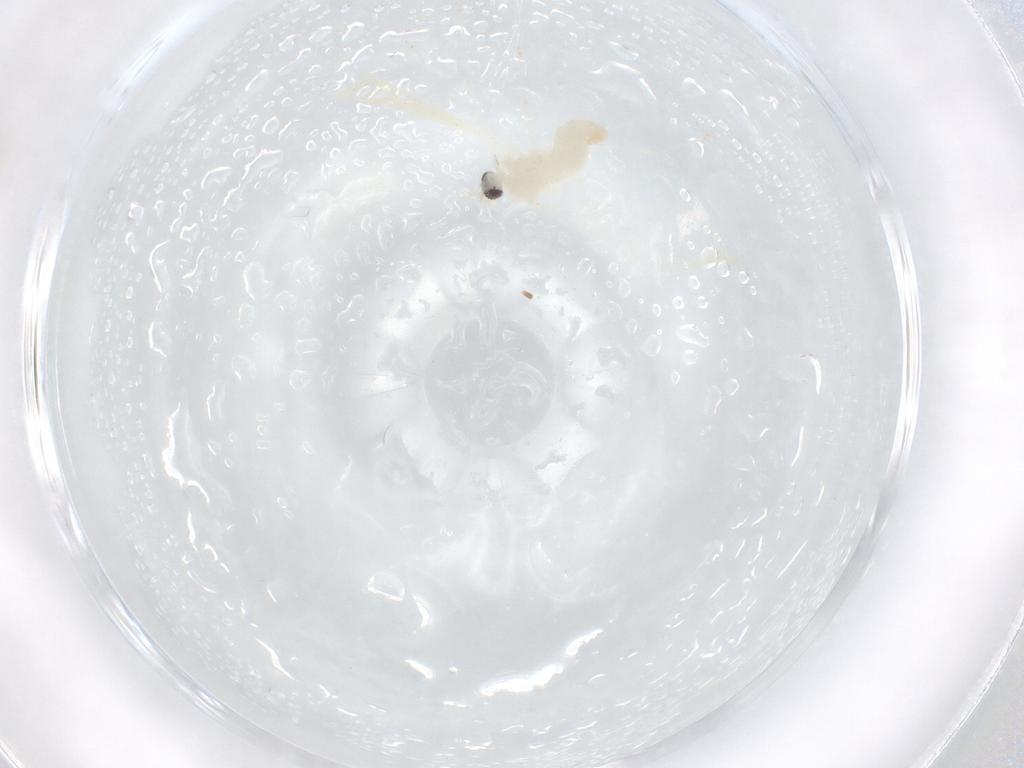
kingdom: Animalia
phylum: Arthropoda
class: Insecta
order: Diptera
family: Cecidomyiidae
